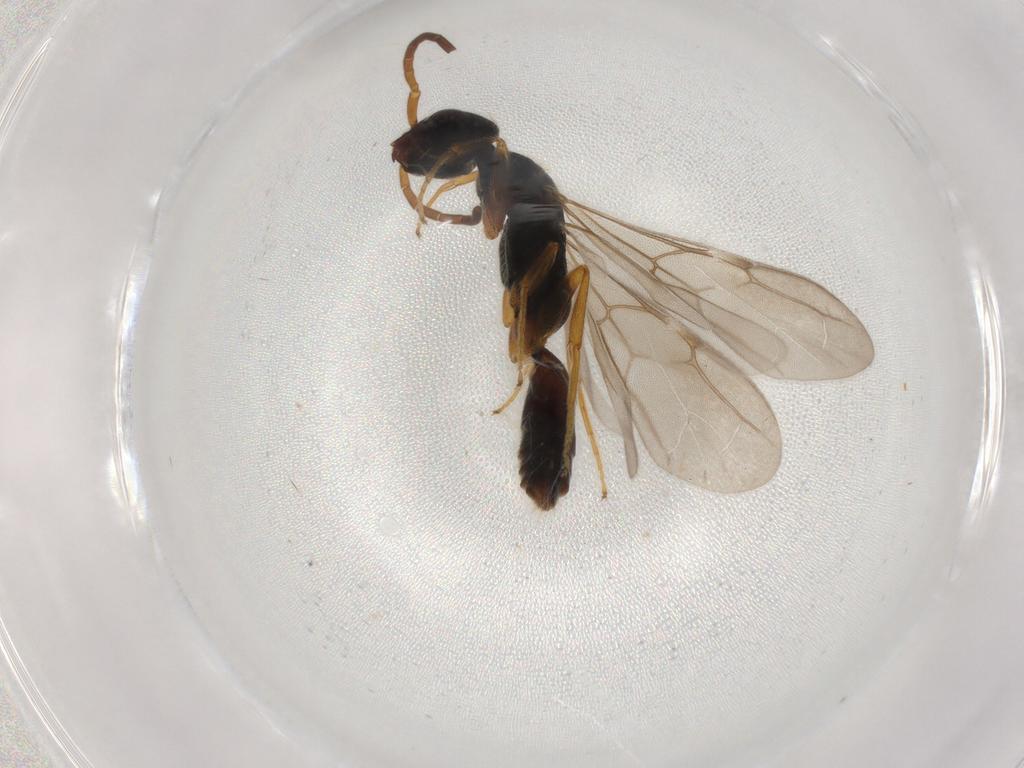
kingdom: Animalia
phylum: Arthropoda
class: Insecta
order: Hymenoptera
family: Bethylidae
